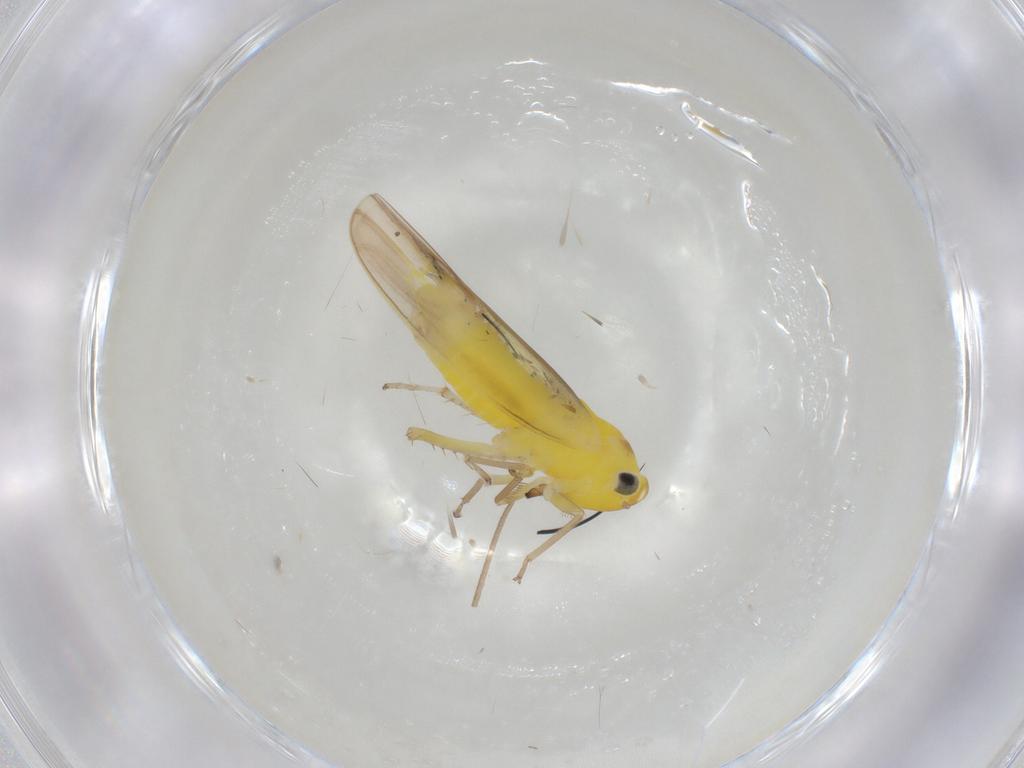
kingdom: Animalia
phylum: Arthropoda
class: Insecta
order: Hemiptera
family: Cicadellidae
